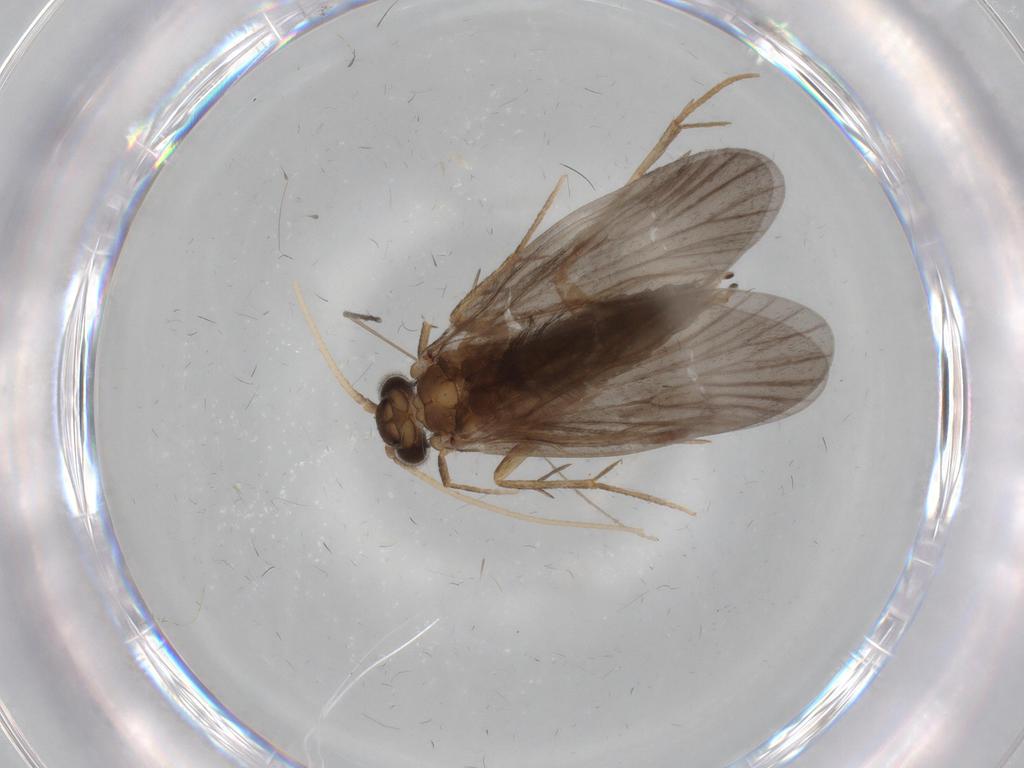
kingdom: Animalia
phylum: Arthropoda
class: Insecta
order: Trichoptera
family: Philopotamidae
